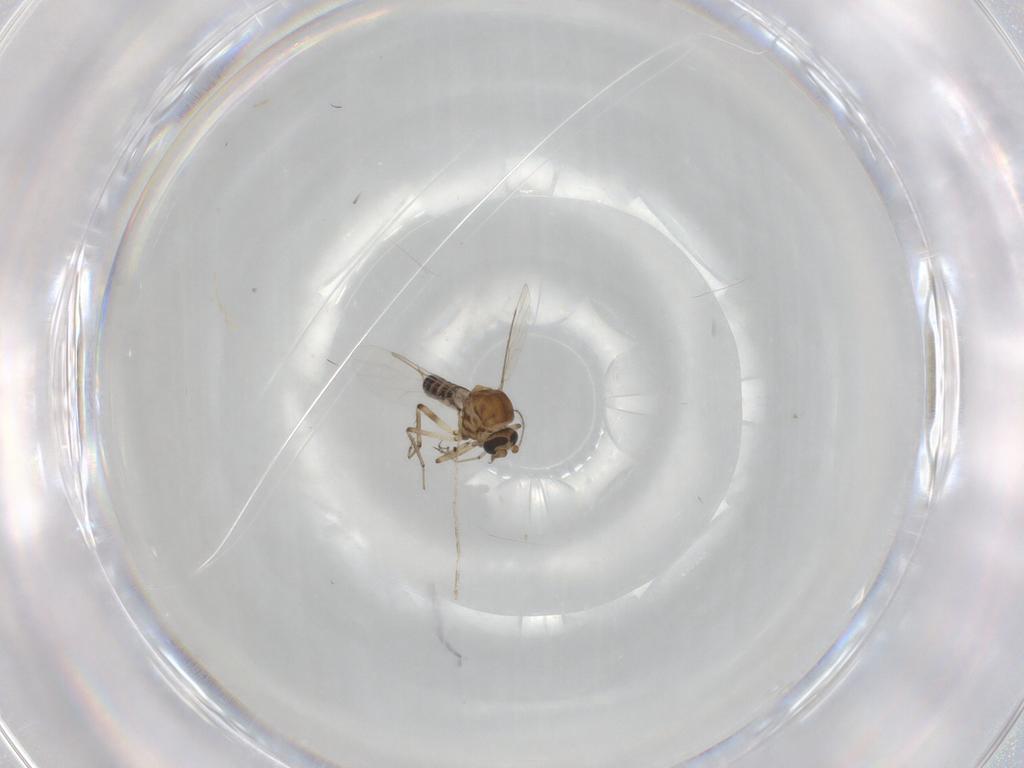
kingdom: Animalia
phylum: Arthropoda
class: Insecta
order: Diptera
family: Ceratopogonidae
